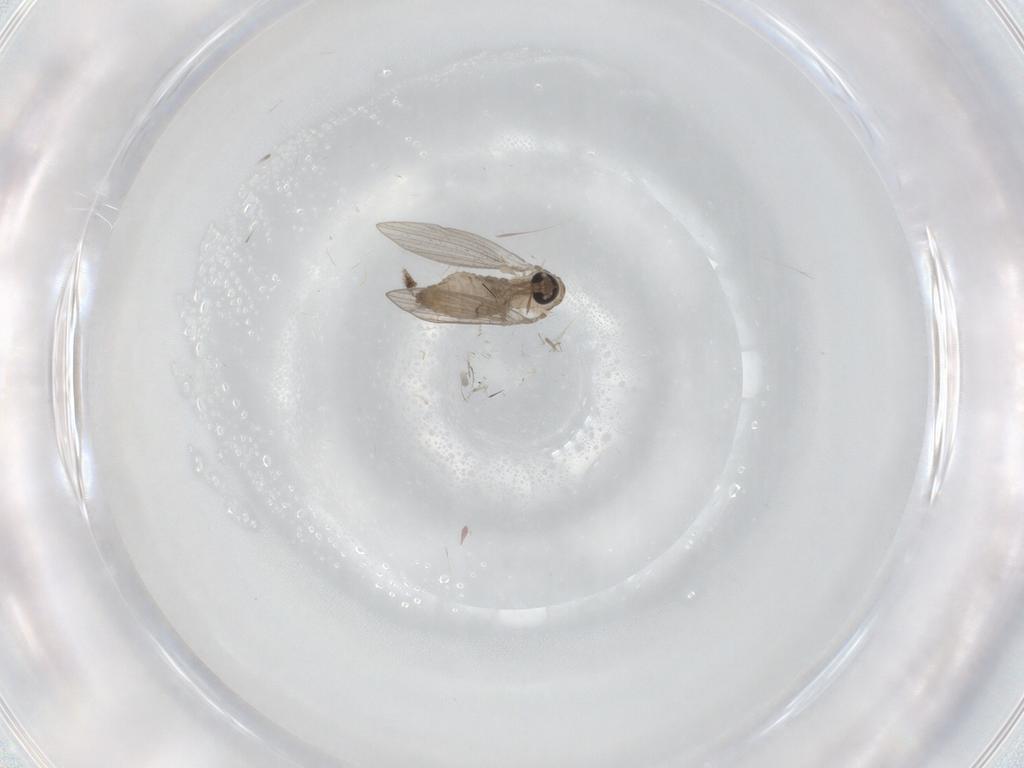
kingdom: Animalia
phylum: Arthropoda
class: Insecta
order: Diptera
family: Psychodidae
